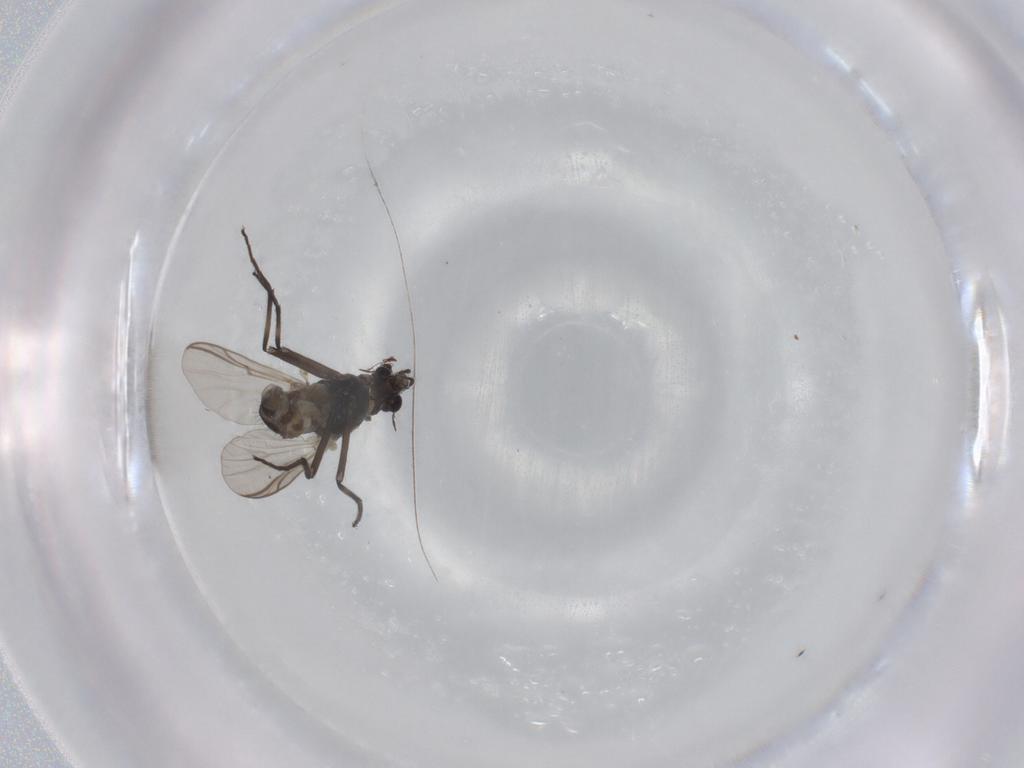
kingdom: Animalia
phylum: Arthropoda
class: Insecta
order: Diptera
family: Chironomidae
